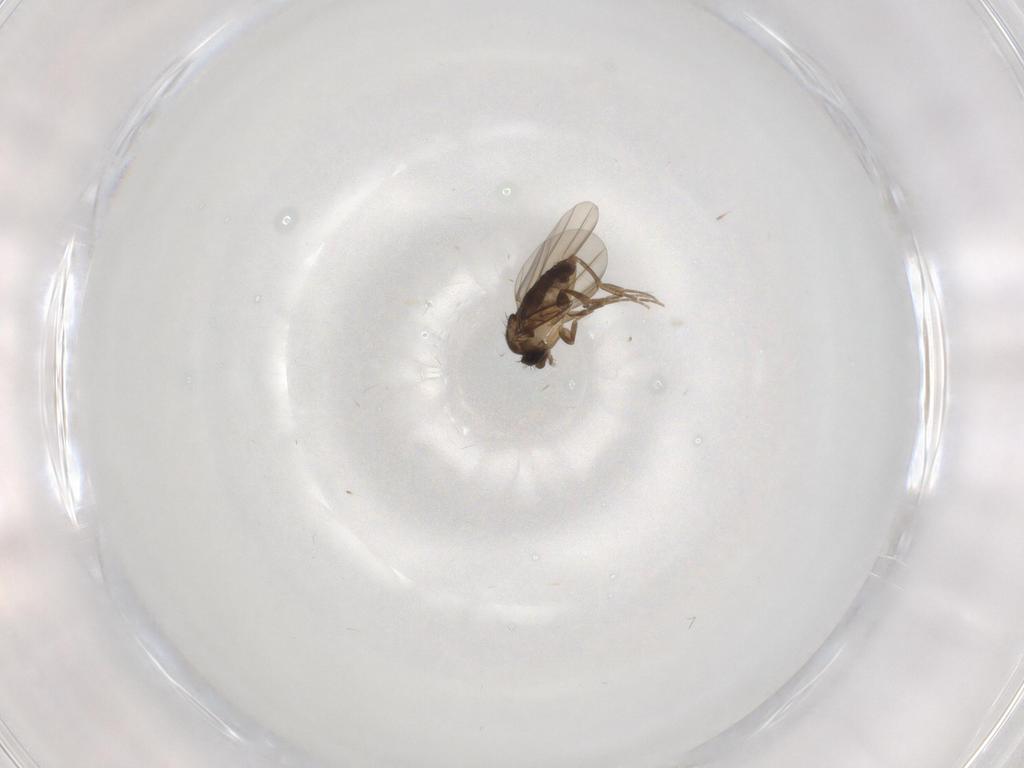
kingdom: Animalia
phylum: Arthropoda
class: Insecta
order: Diptera
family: Phoridae
